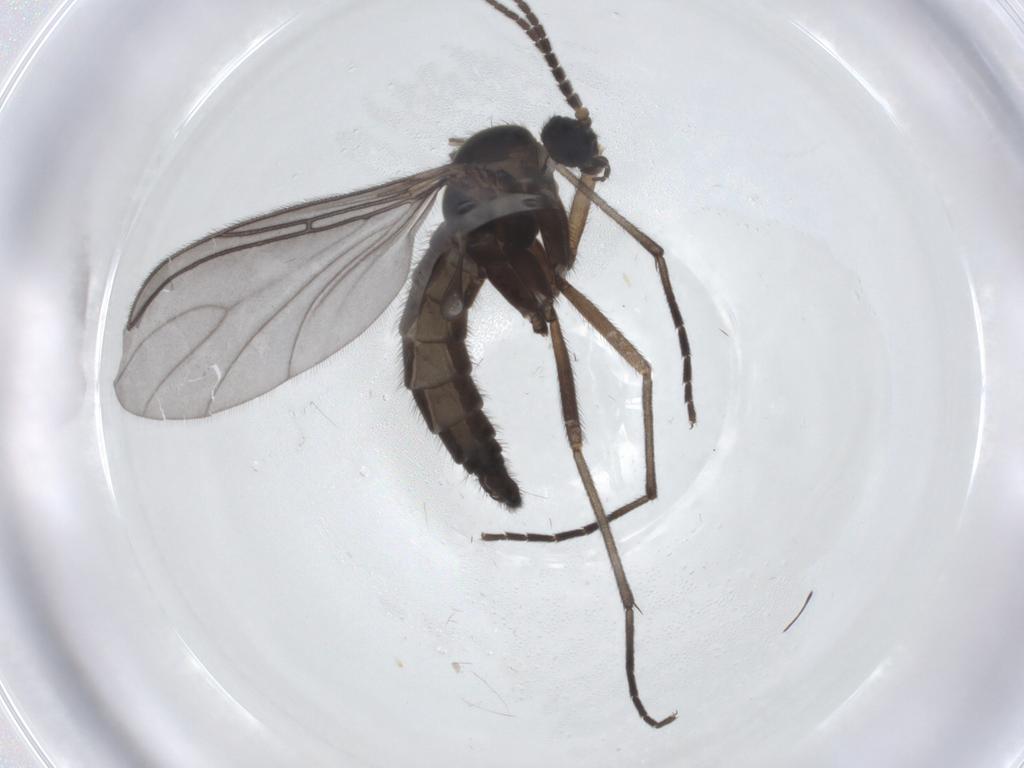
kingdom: Animalia
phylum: Arthropoda
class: Insecta
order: Diptera
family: Sciaridae
